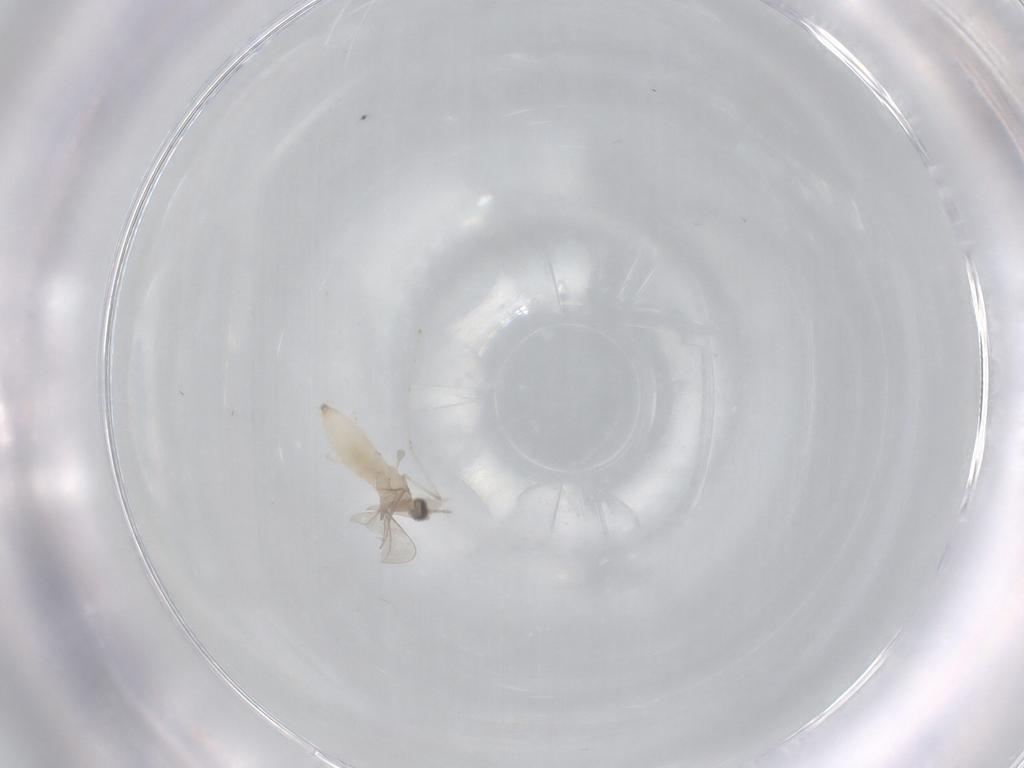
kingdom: Animalia
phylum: Arthropoda
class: Insecta
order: Diptera
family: Cecidomyiidae
